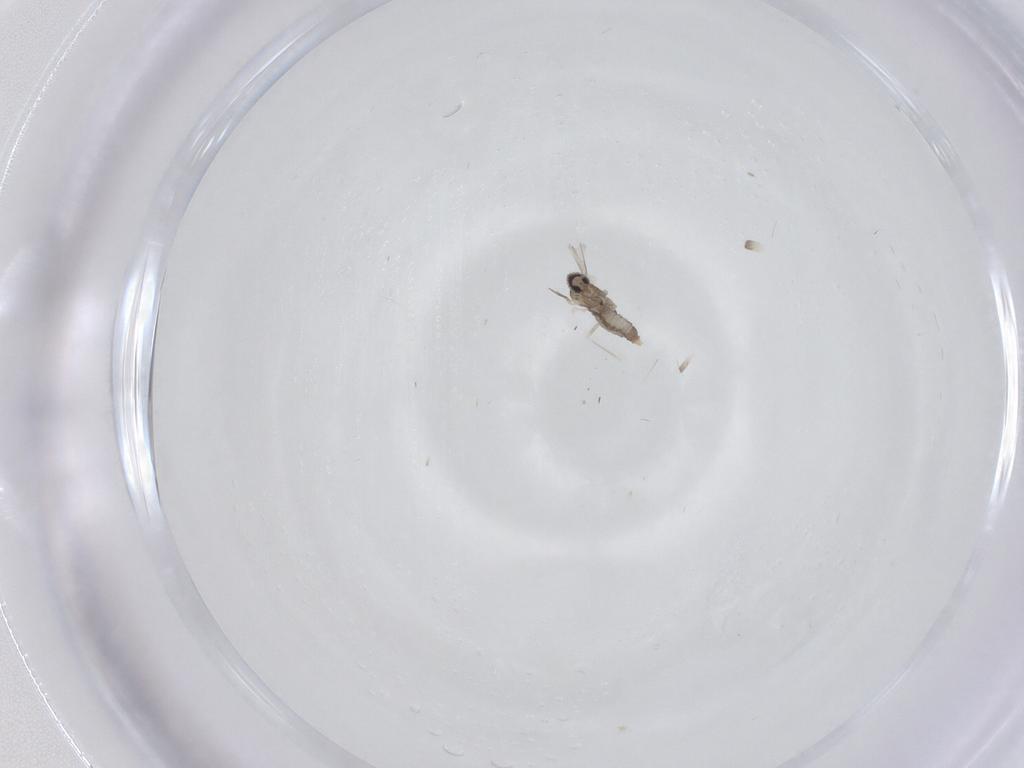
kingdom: Animalia
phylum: Arthropoda
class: Insecta
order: Diptera
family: Cecidomyiidae
